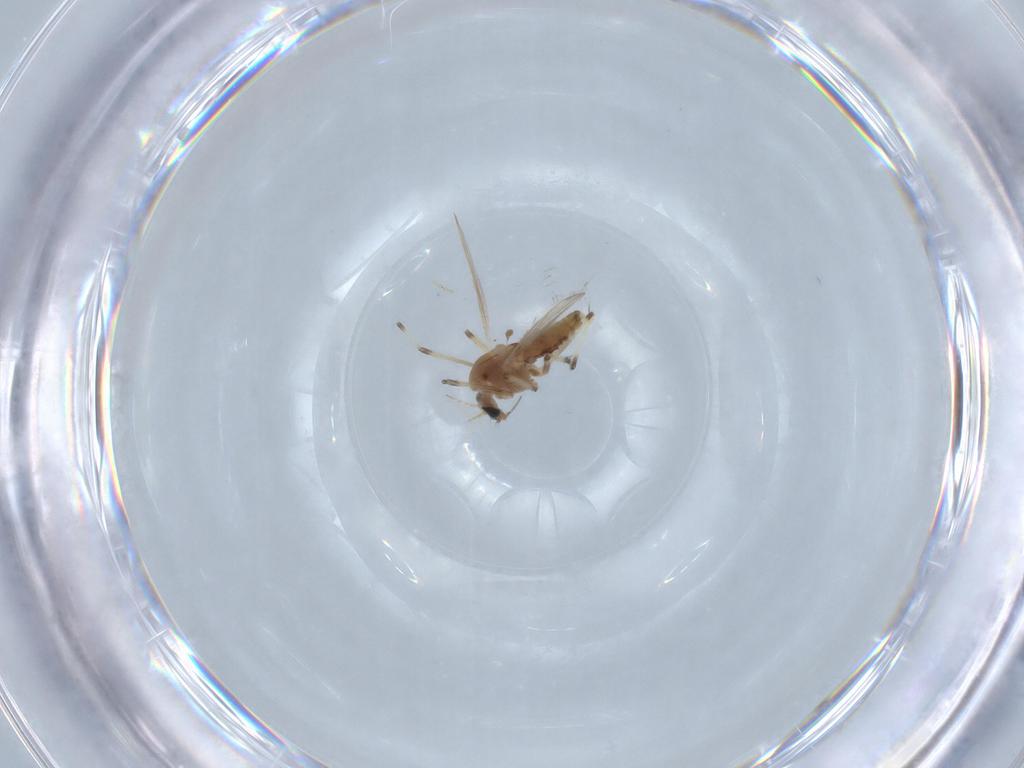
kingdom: Animalia
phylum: Arthropoda
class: Insecta
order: Diptera
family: Chironomidae
